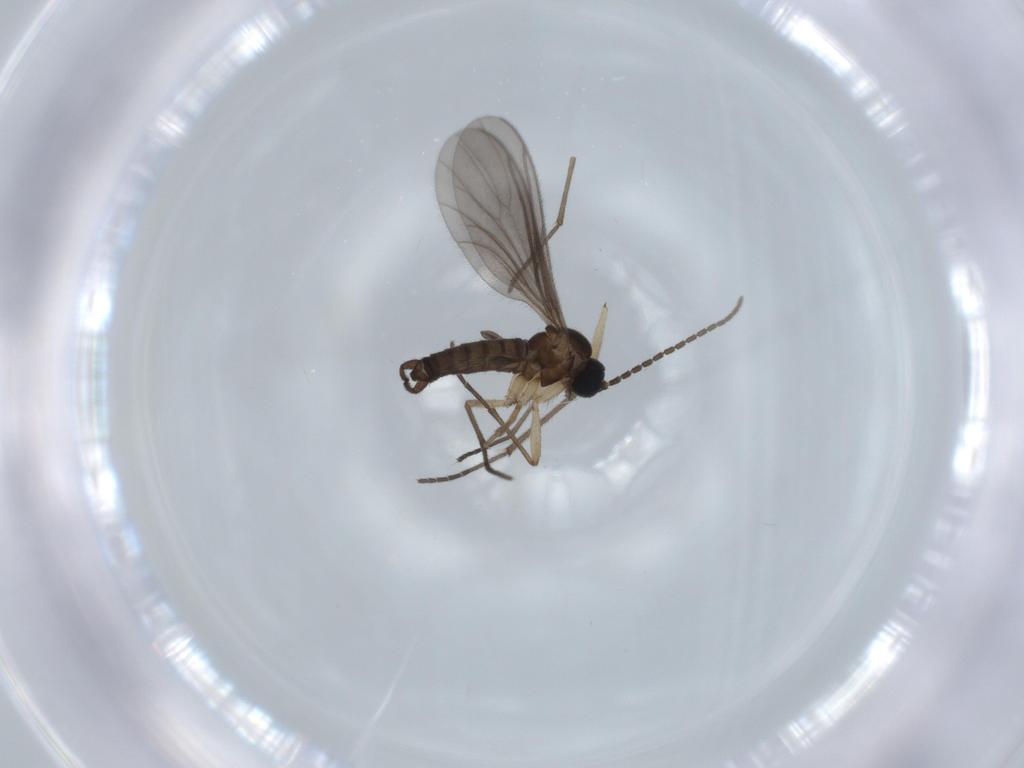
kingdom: Animalia
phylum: Arthropoda
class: Insecta
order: Diptera
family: Sciaridae
